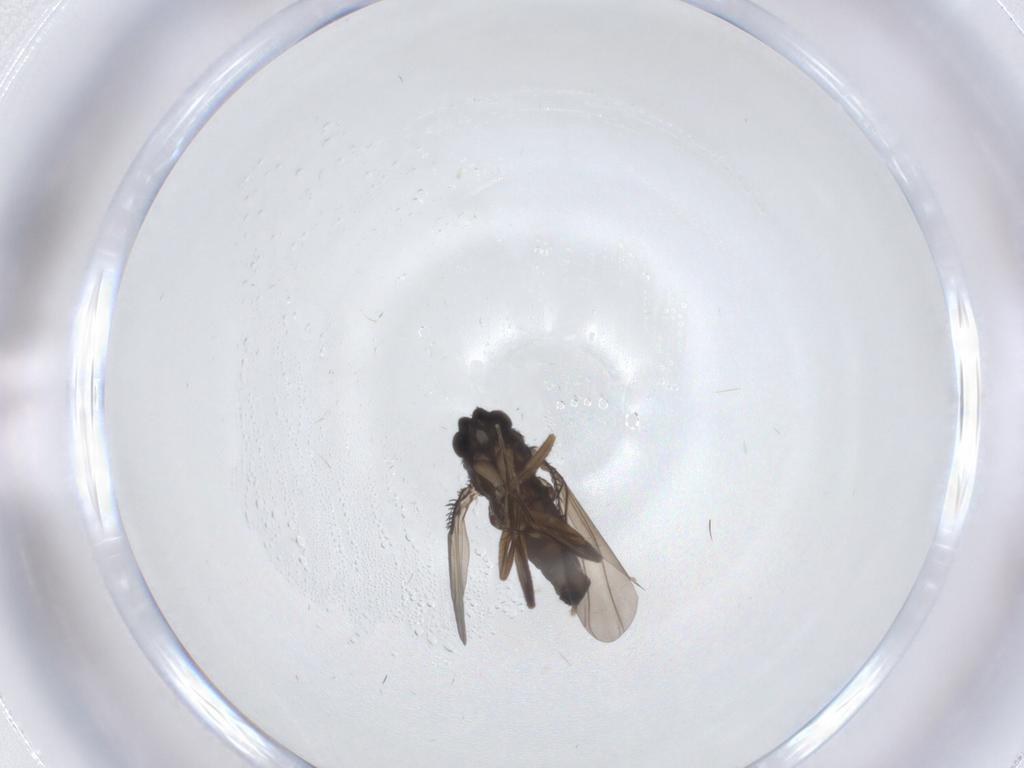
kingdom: Animalia
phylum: Arthropoda
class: Insecta
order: Diptera
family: Phoridae
